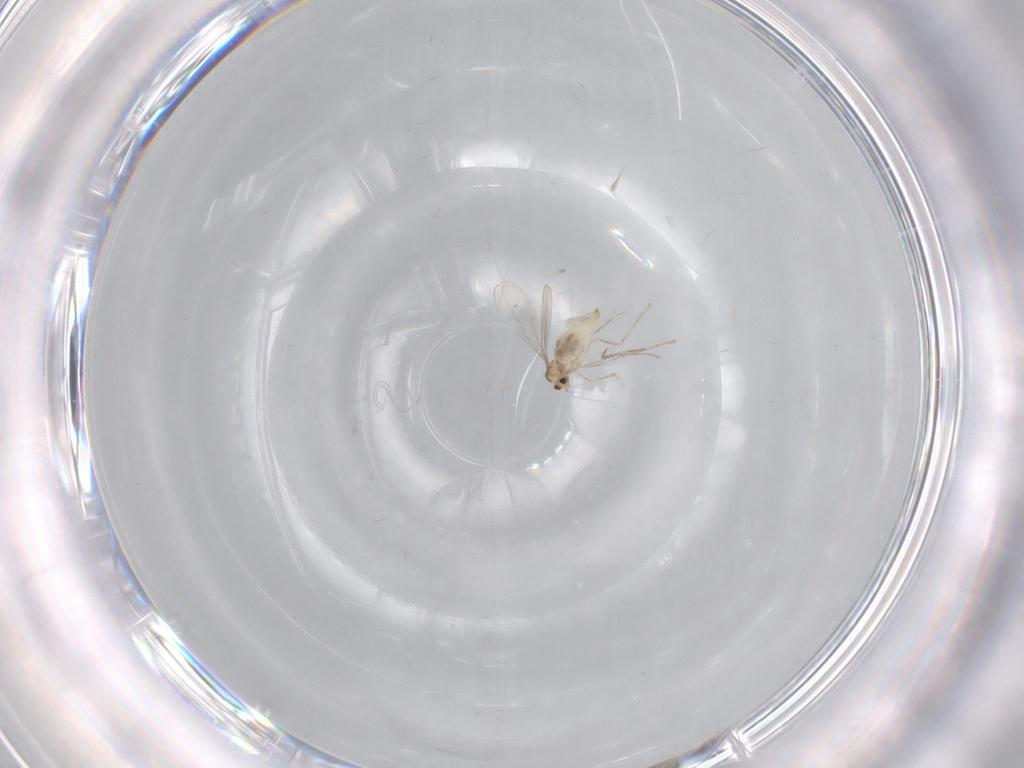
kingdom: Animalia
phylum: Arthropoda
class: Insecta
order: Diptera
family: Cecidomyiidae
